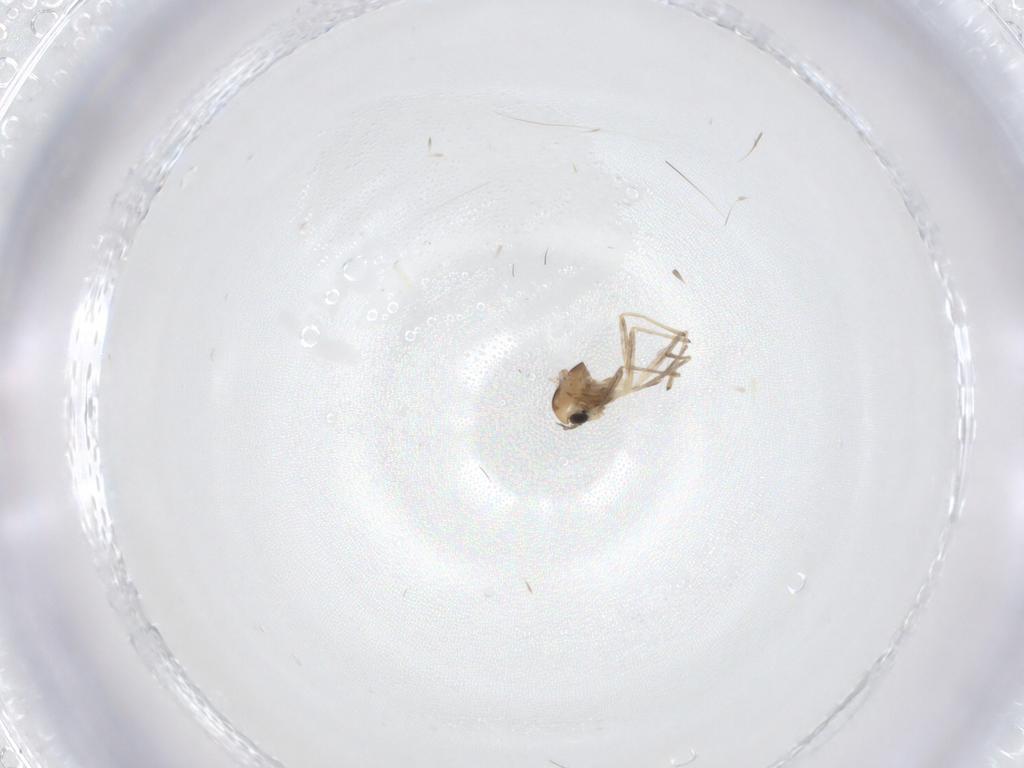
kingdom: Animalia
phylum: Arthropoda
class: Insecta
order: Diptera
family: Chironomidae
